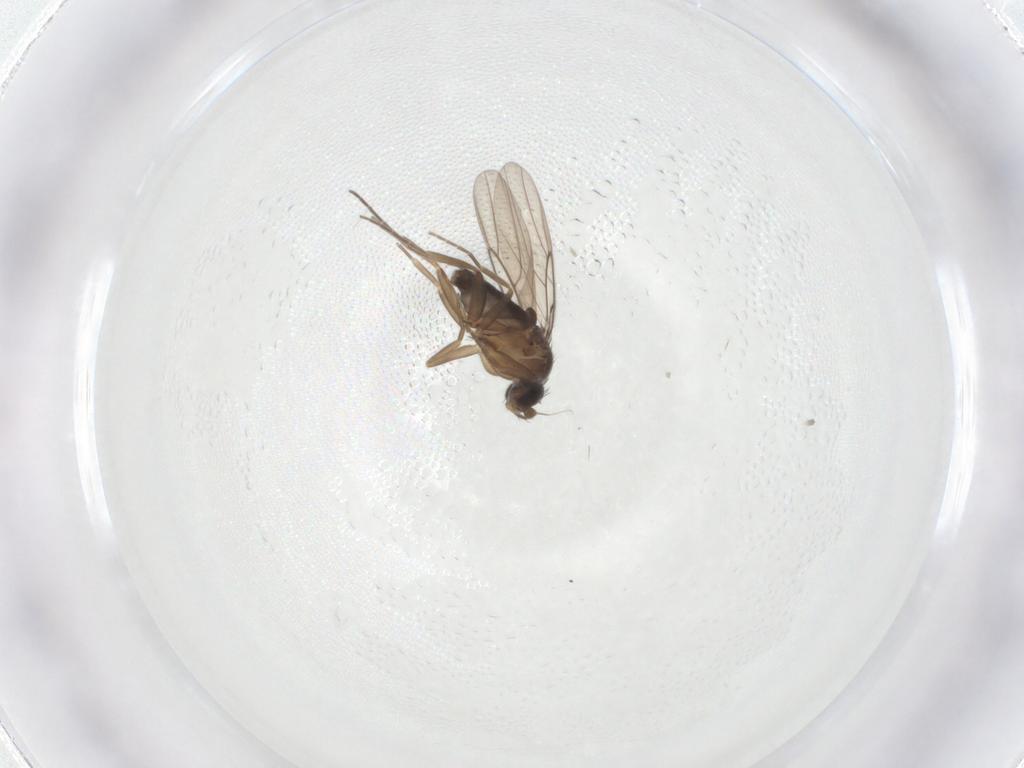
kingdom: Animalia
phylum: Arthropoda
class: Insecta
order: Diptera
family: Phoridae
